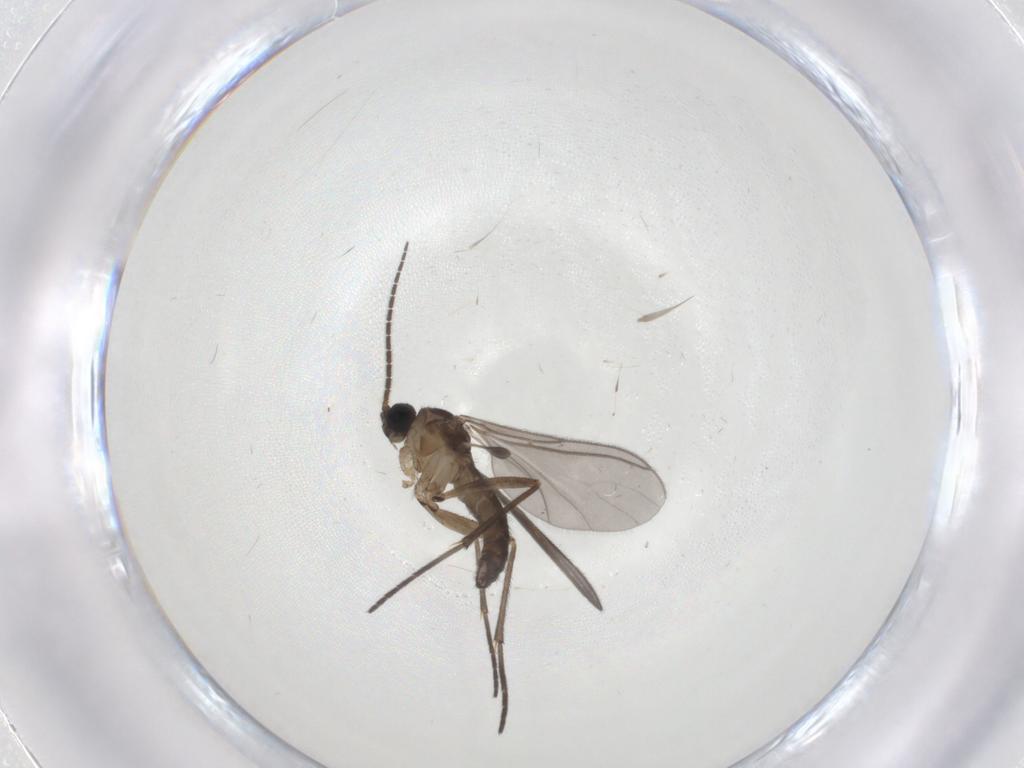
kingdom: Animalia
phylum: Arthropoda
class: Insecta
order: Diptera
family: Sciaridae
